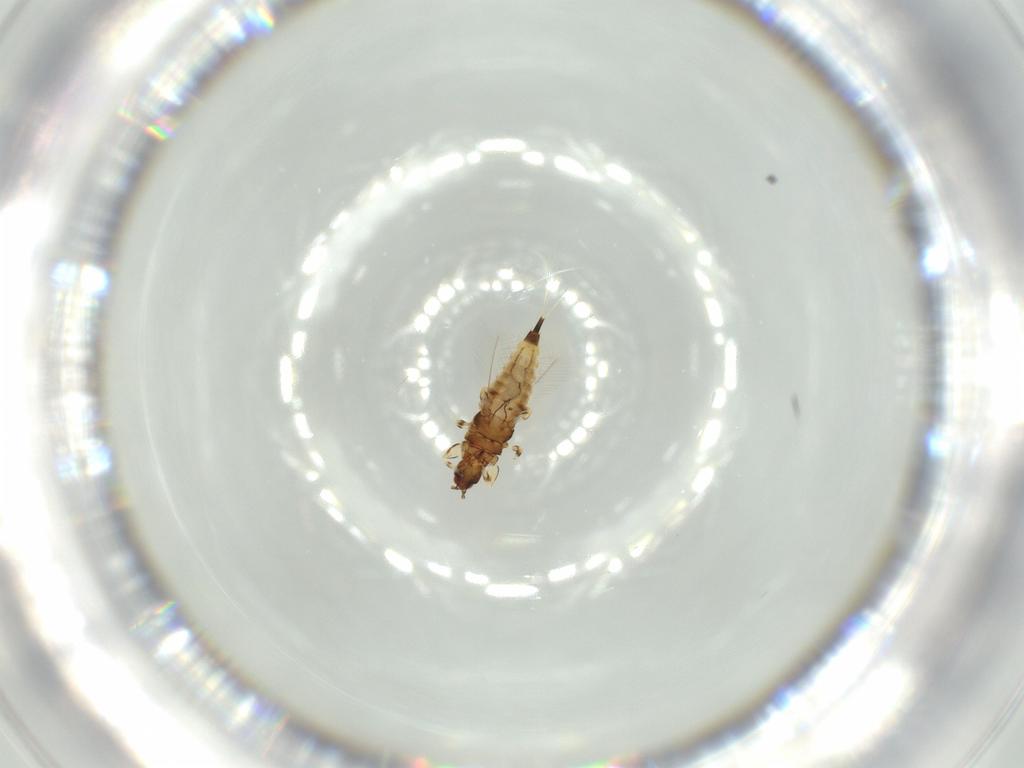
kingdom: Animalia
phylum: Arthropoda
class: Insecta
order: Thysanoptera
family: Phlaeothripidae
